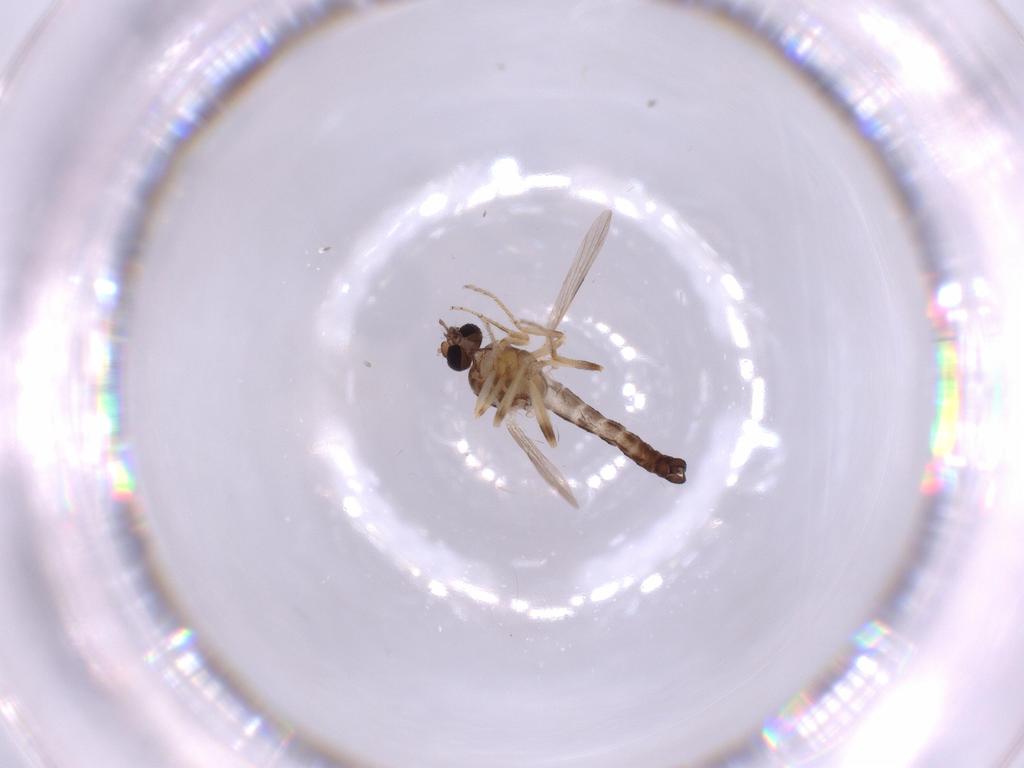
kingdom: Animalia
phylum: Arthropoda
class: Insecta
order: Diptera
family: Ceratopogonidae
